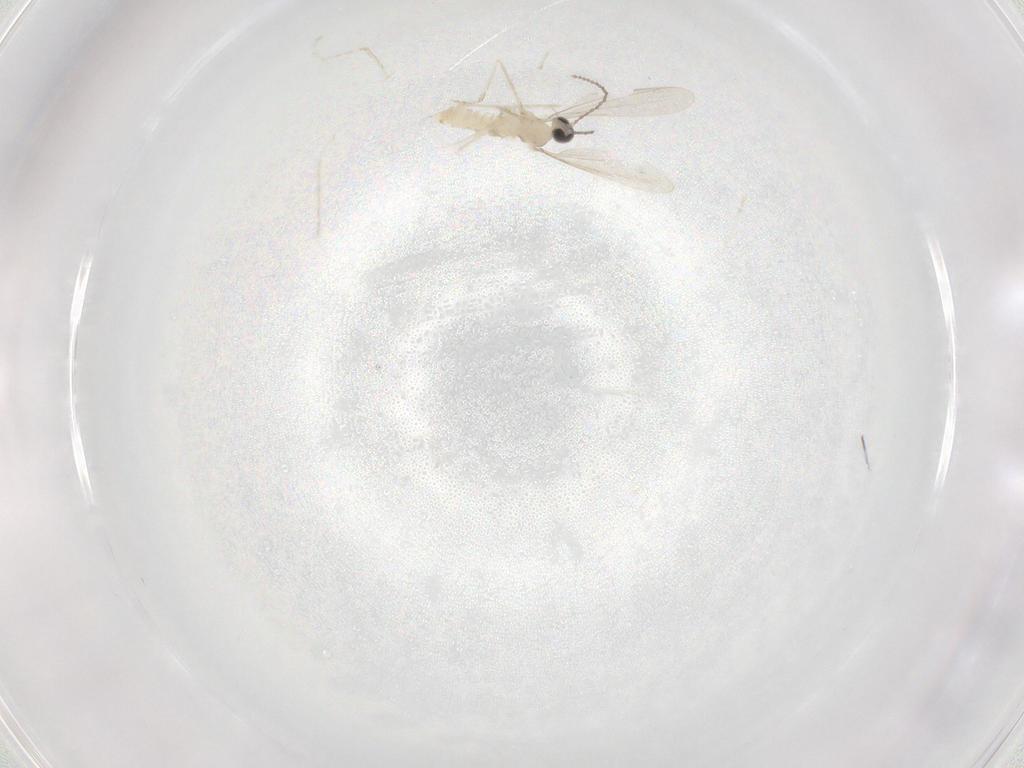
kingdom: Animalia
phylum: Arthropoda
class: Insecta
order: Diptera
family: Cecidomyiidae
